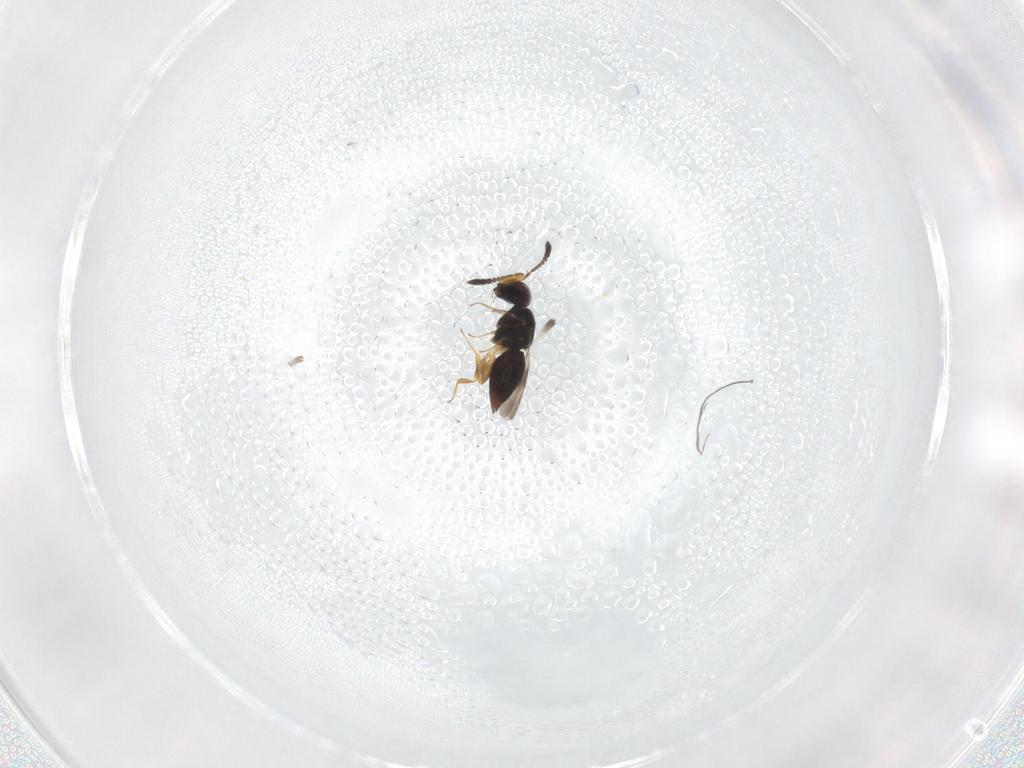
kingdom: Animalia
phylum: Arthropoda
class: Insecta
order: Hymenoptera
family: Ceraphronidae
